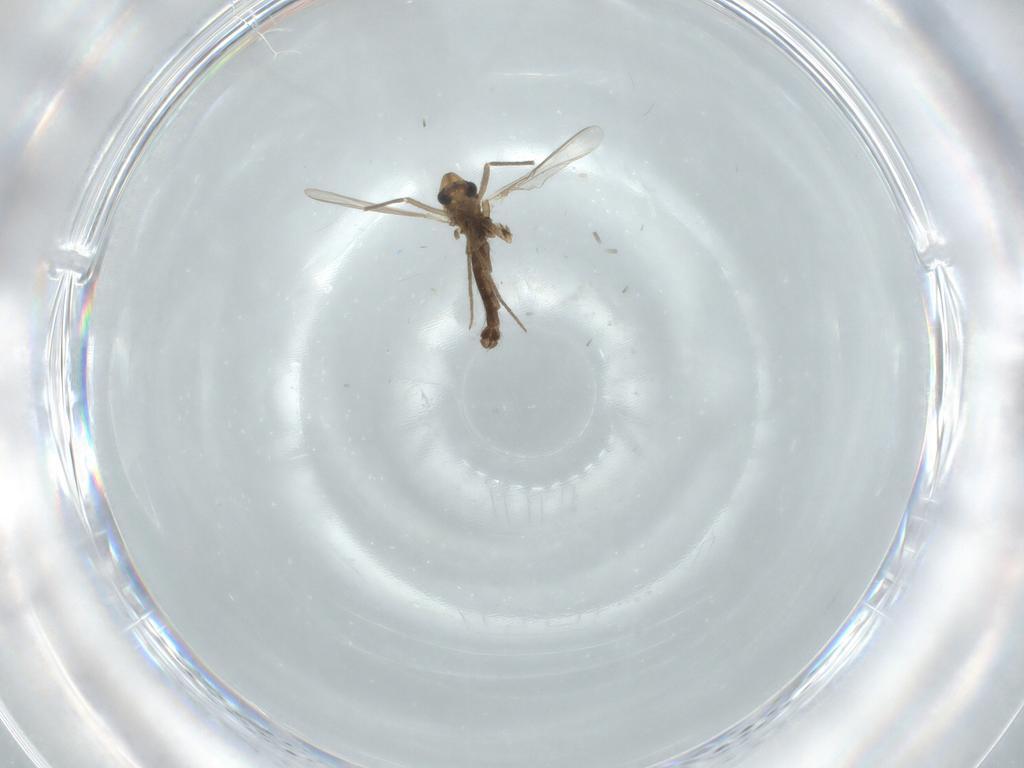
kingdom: Animalia
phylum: Arthropoda
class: Insecta
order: Diptera
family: Chironomidae
